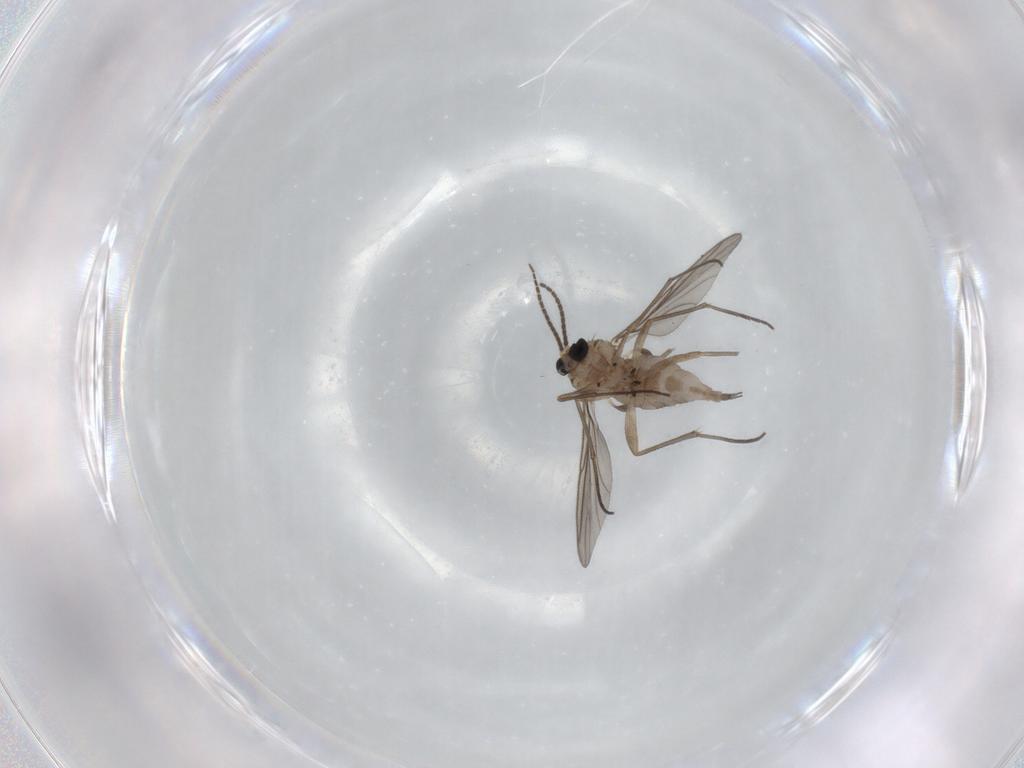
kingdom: Animalia
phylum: Arthropoda
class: Insecta
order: Diptera
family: Sciaridae
